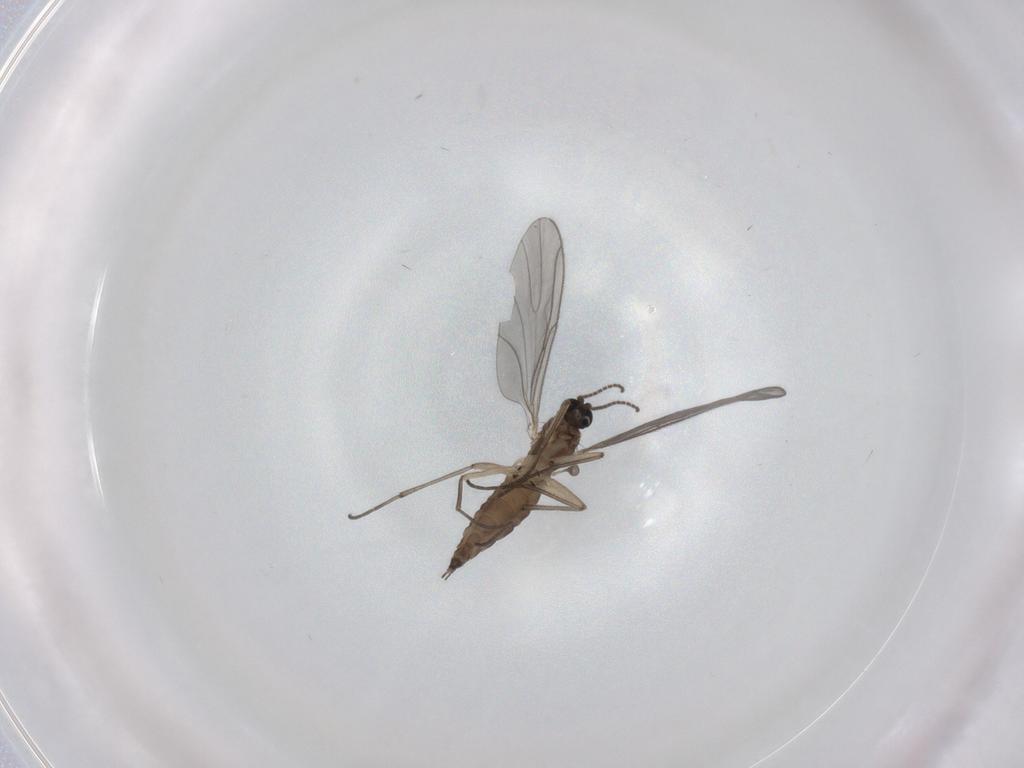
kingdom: Animalia
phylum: Arthropoda
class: Insecta
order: Diptera
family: Sciaridae
